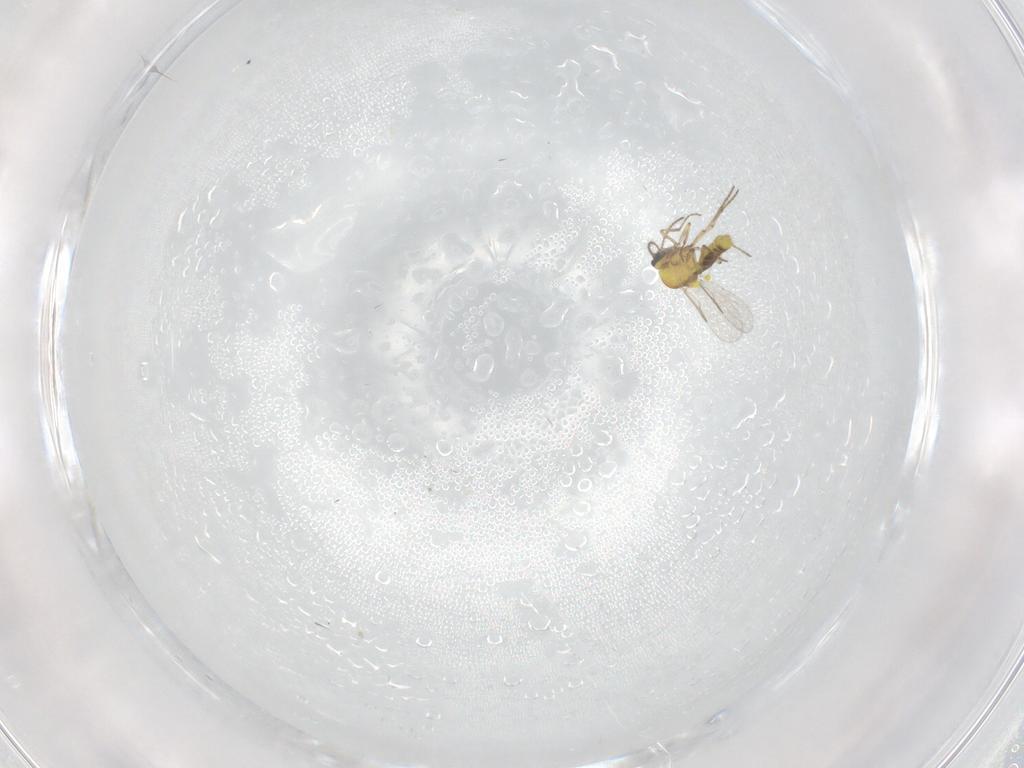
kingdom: Animalia
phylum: Arthropoda
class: Insecta
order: Diptera
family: Ceratopogonidae
